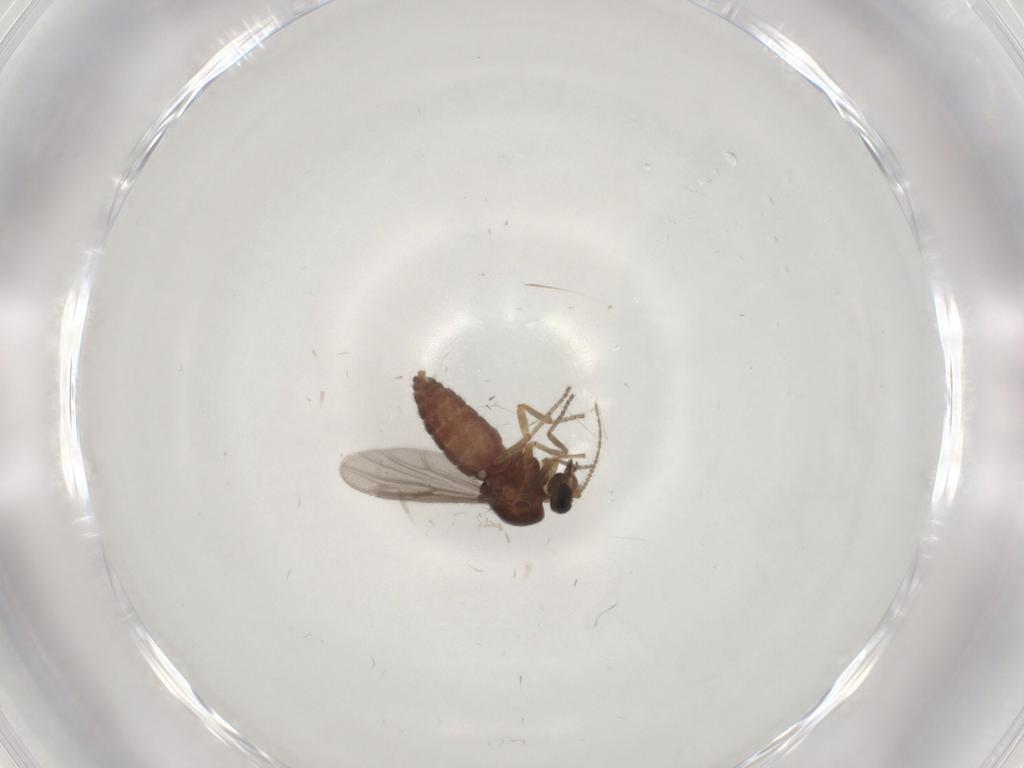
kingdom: Animalia
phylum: Arthropoda
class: Insecta
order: Diptera
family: Ceratopogonidae
